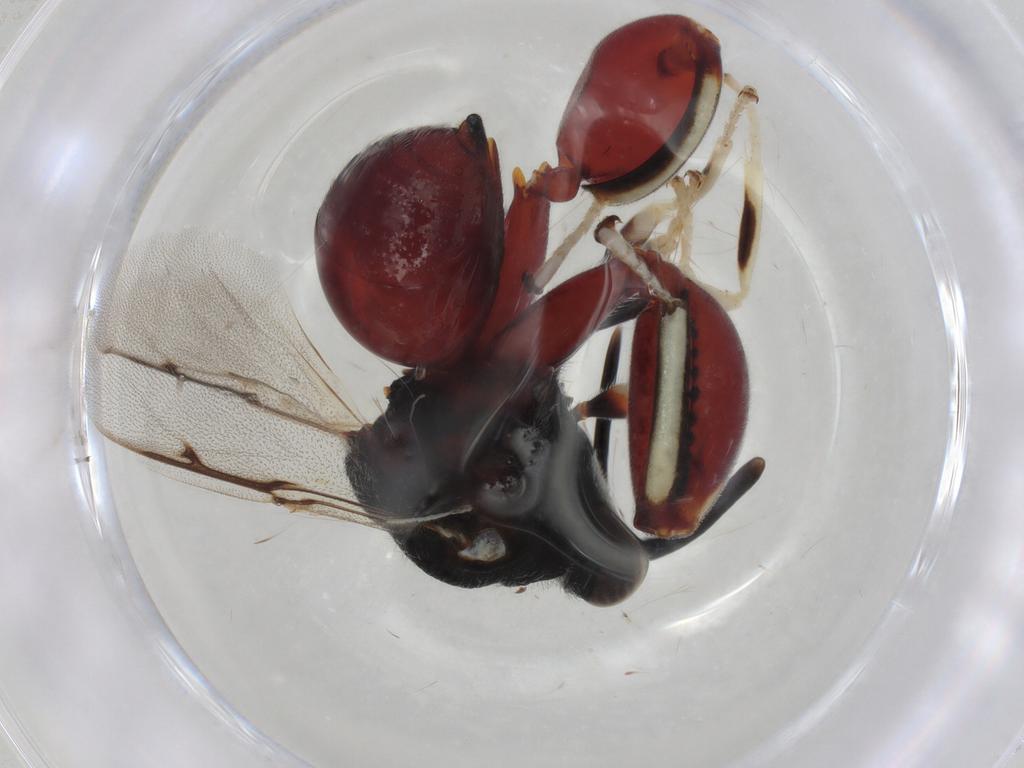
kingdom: Animalia
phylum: Arthropoda
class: Insecta
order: Hymenoptera
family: Chalcididae
